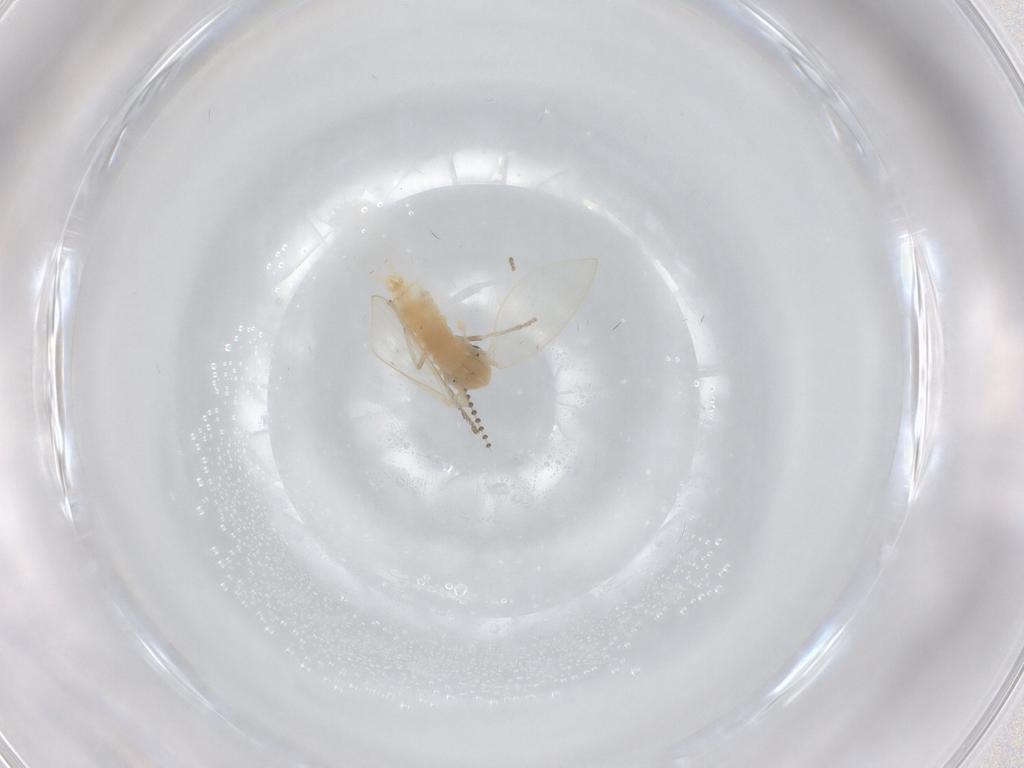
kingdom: Animalia
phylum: Arthropoda
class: Insecta
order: Diptera
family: Psychodidae
